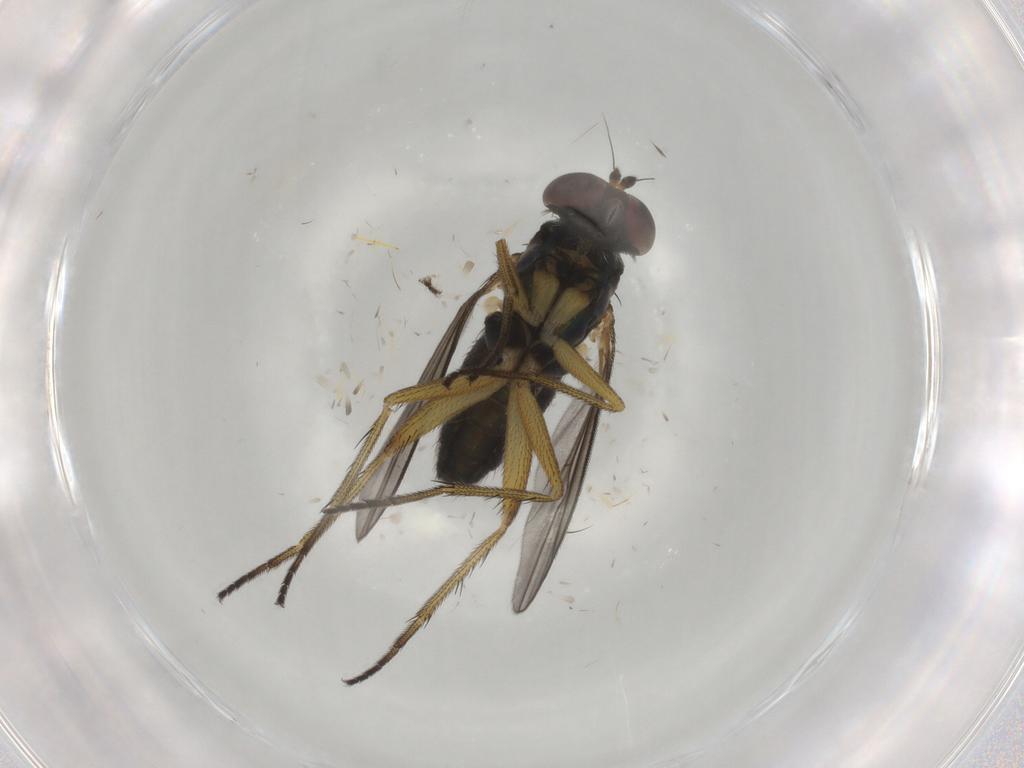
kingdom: Animalia
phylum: Arthropoda
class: Insecta
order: Diptera
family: Dolichopodidae
